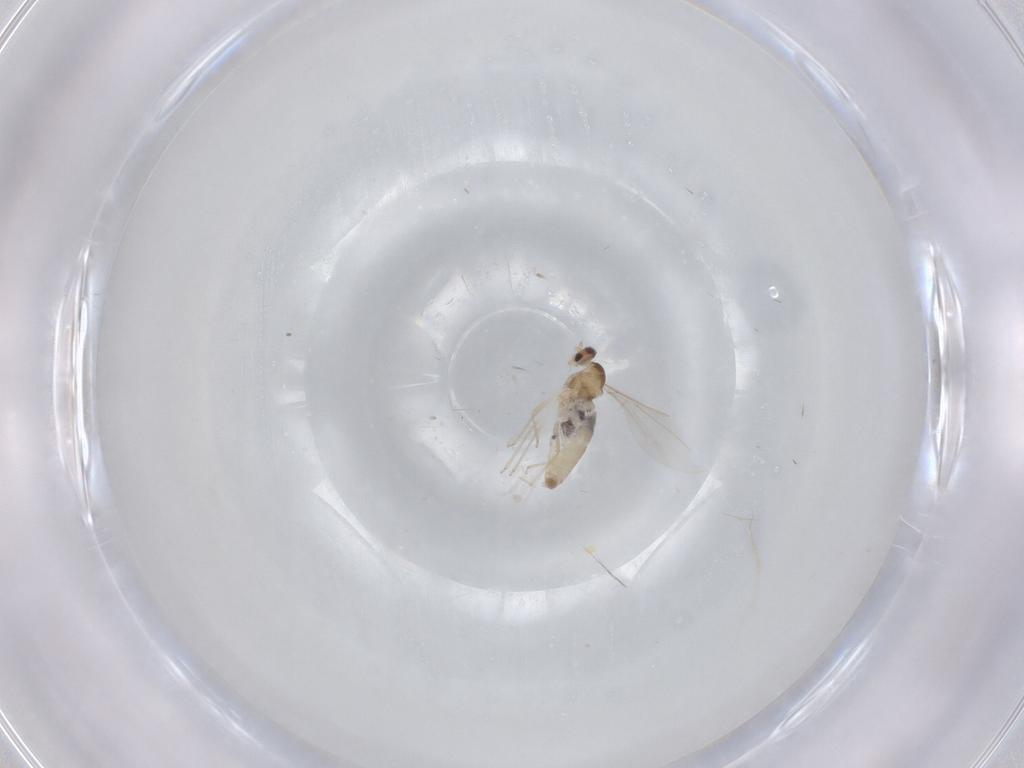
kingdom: Animalia
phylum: Arthropoda
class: Insecta
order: Diptera
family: Cecidomyiidae
